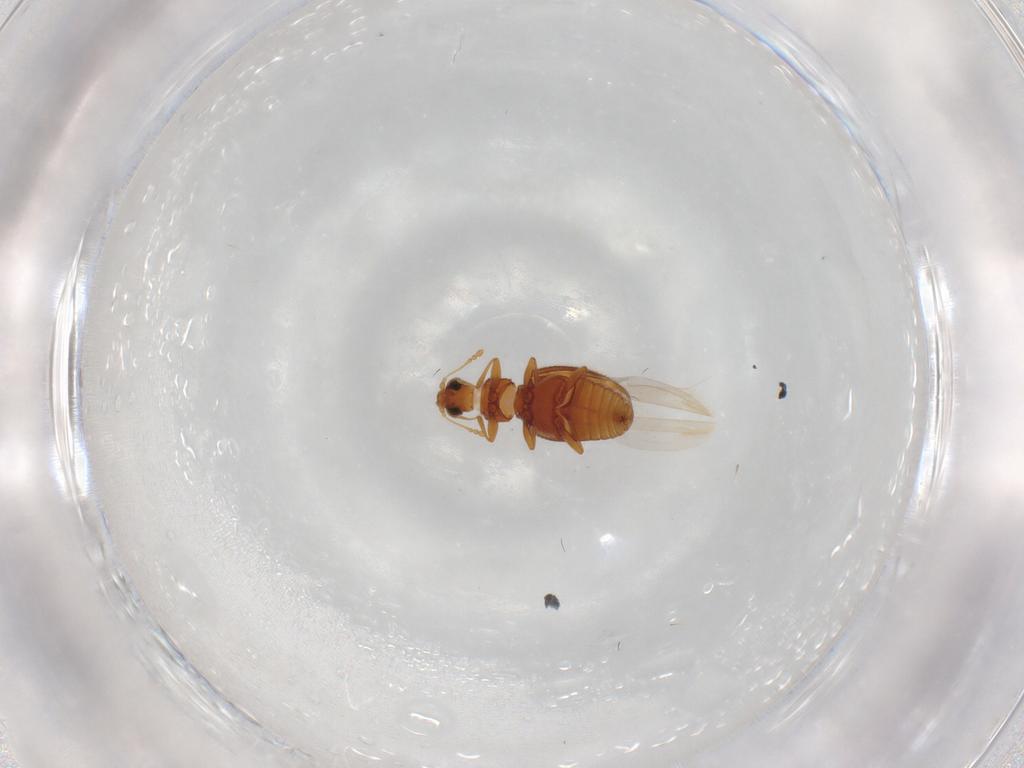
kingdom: Animalia
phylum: Arthropoda
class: Insecta
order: Coleoptera
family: Latridiidae
